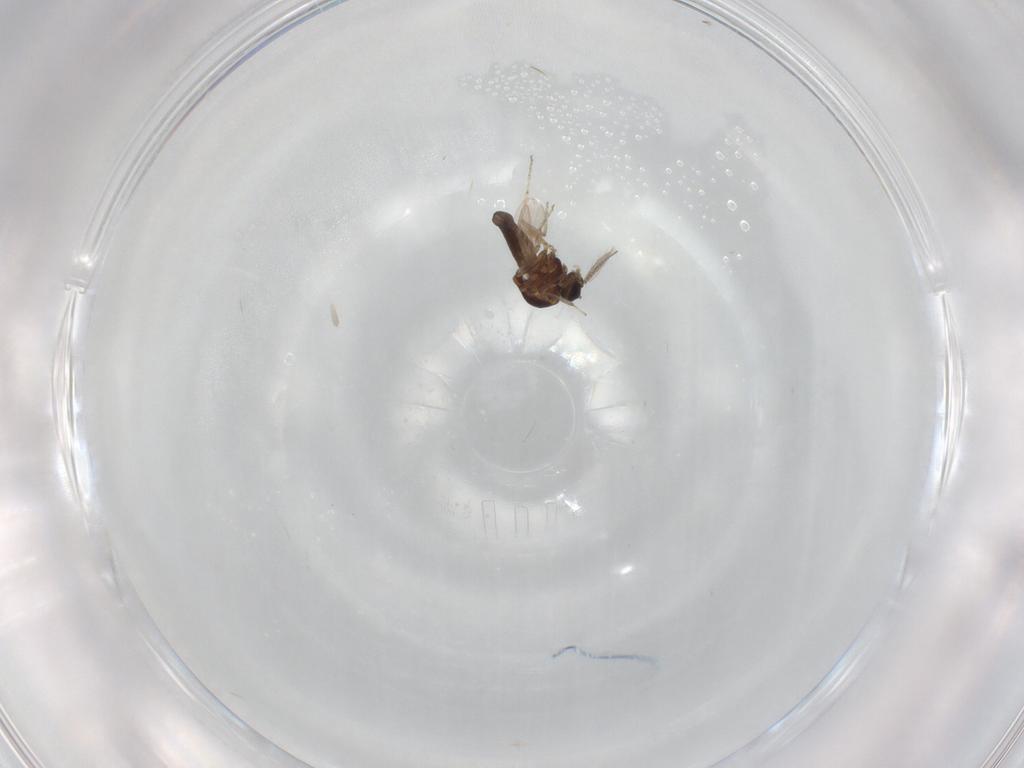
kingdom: Animalia
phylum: Arthropoda
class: Insecta
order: Diptera
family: Ceratopogonidae
